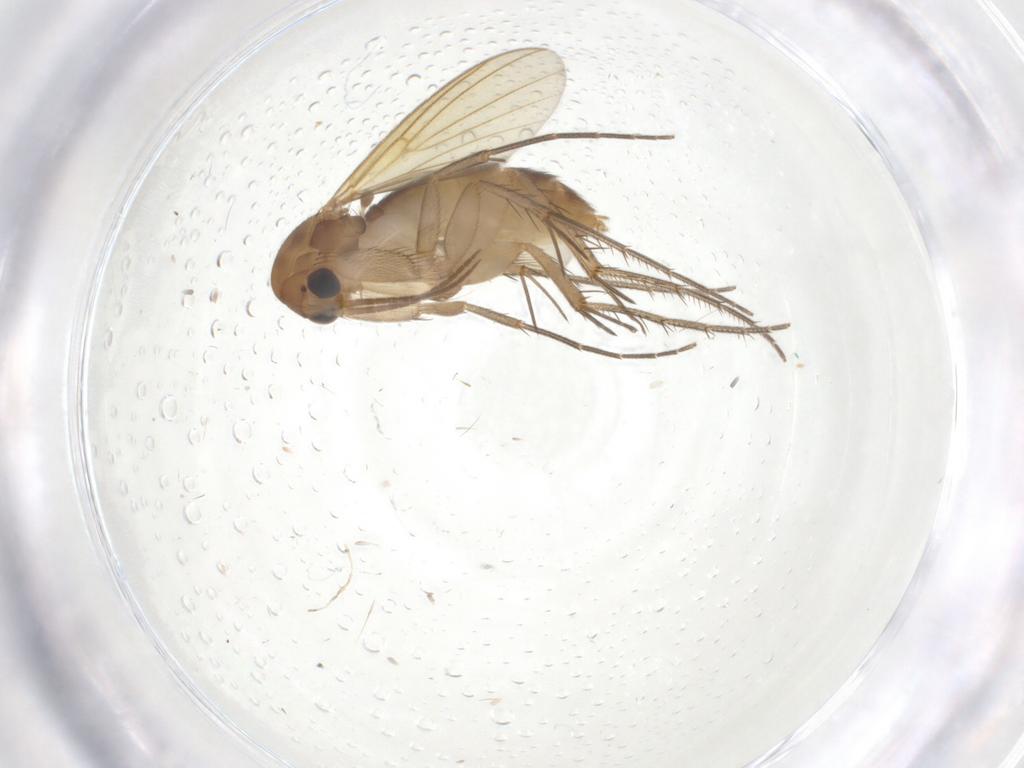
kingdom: Animalia
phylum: Arthropoda
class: Insecta
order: Diptera
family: Mycetophilidae
